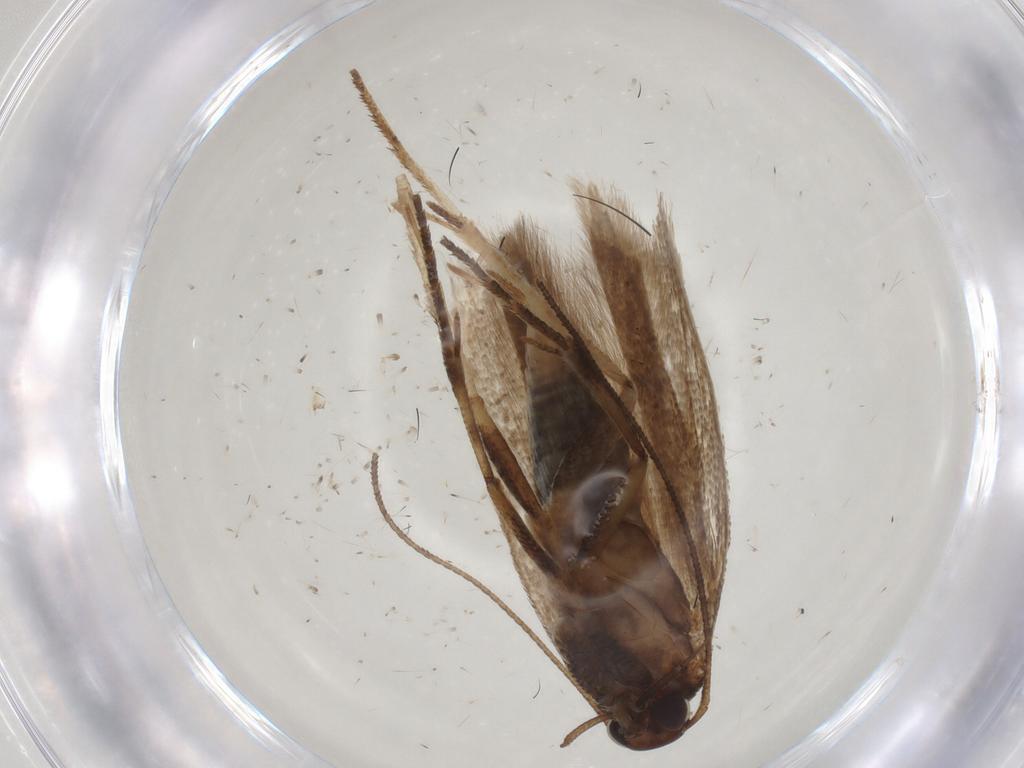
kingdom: Animalia
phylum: Arthropoda
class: Insecta
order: Lepidoptera
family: Gelechiidae
